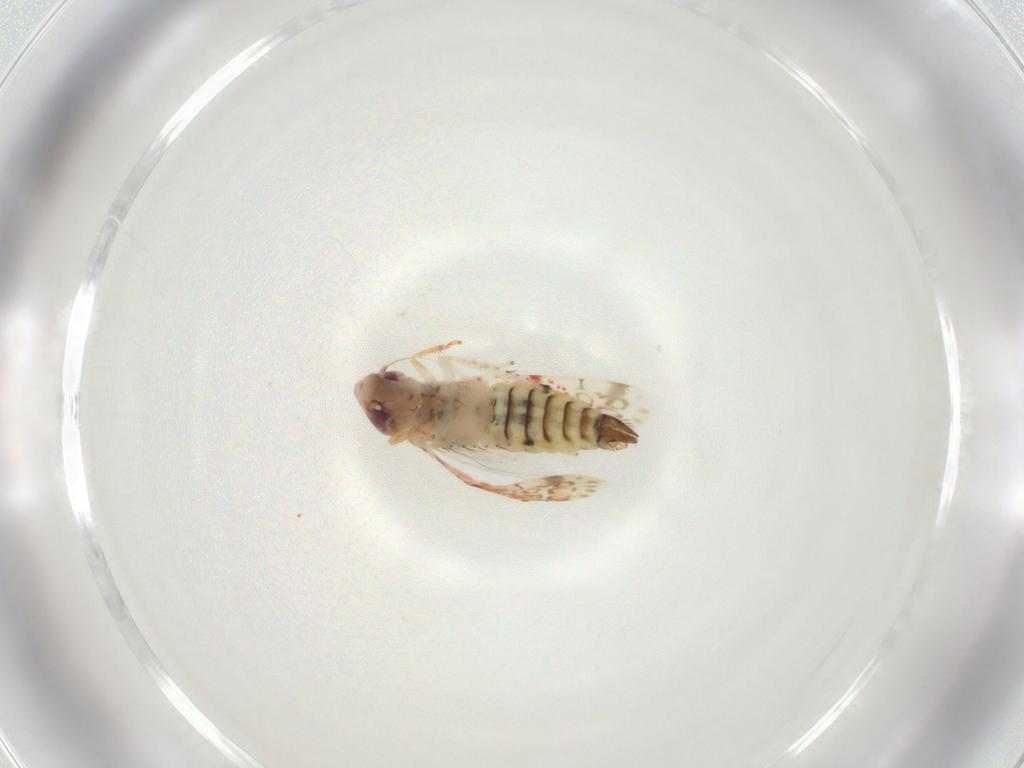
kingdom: Animalia
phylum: Arthropoda
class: Insecta
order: Hemiptera
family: Cicadellidae
